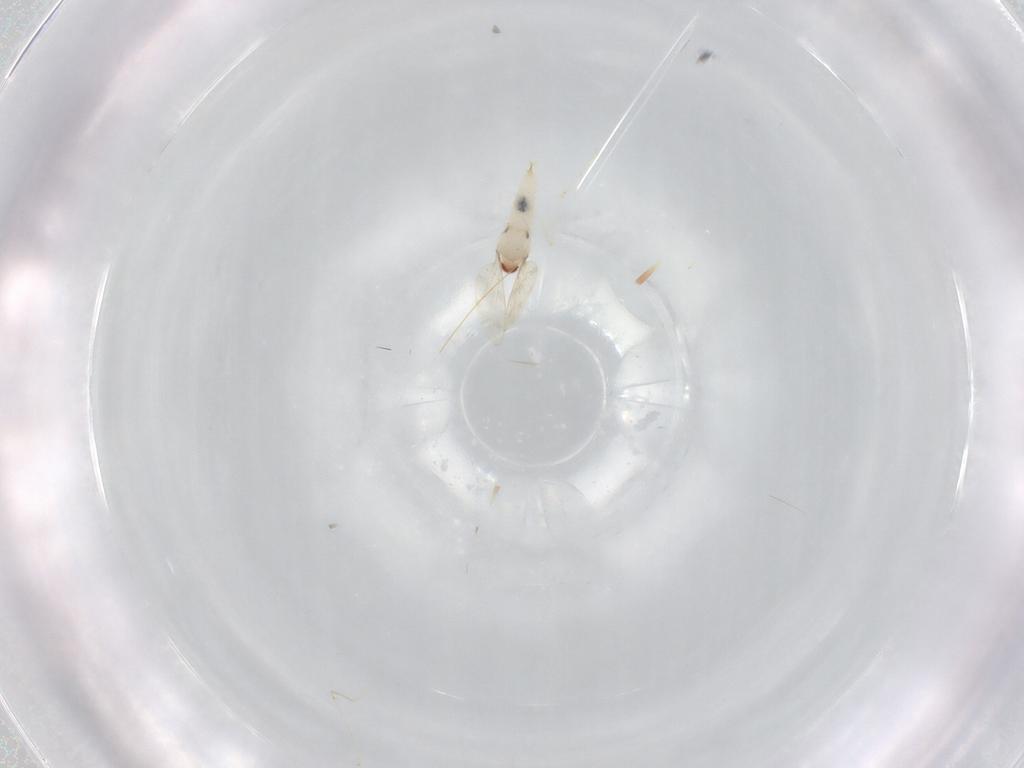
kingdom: Animalia
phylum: Arthropoda
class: Insecta
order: Diptera
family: Cecidomyiidae
